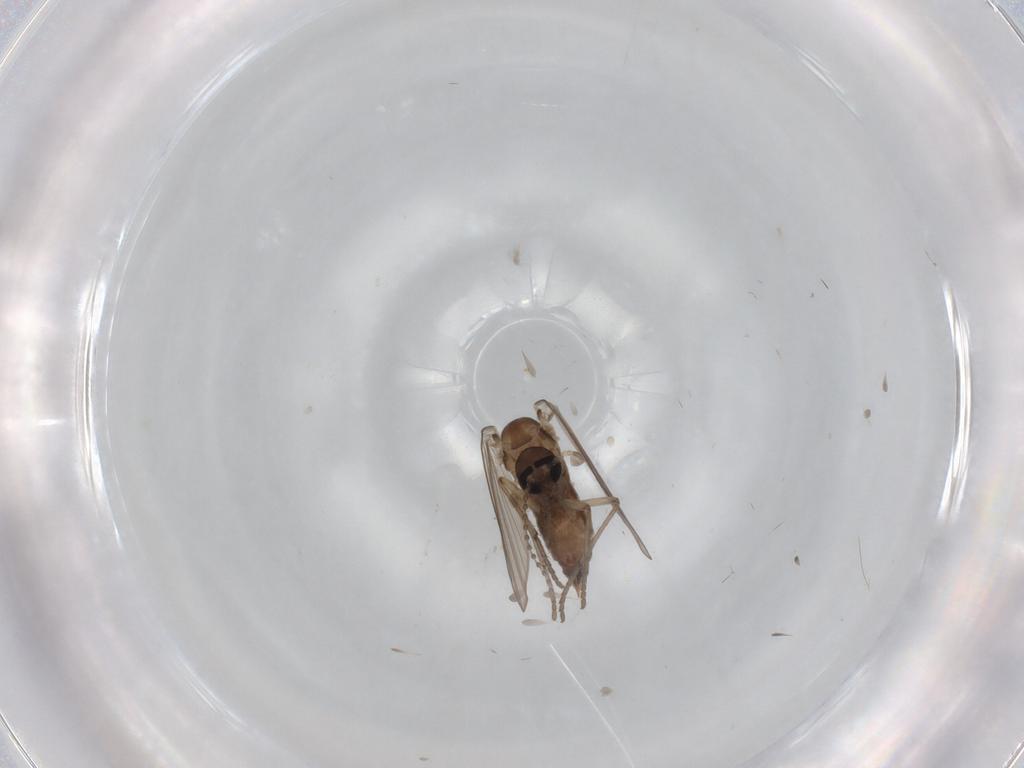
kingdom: Animalia
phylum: Arthropoda
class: Insecta
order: Diptera
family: Psychodidae
